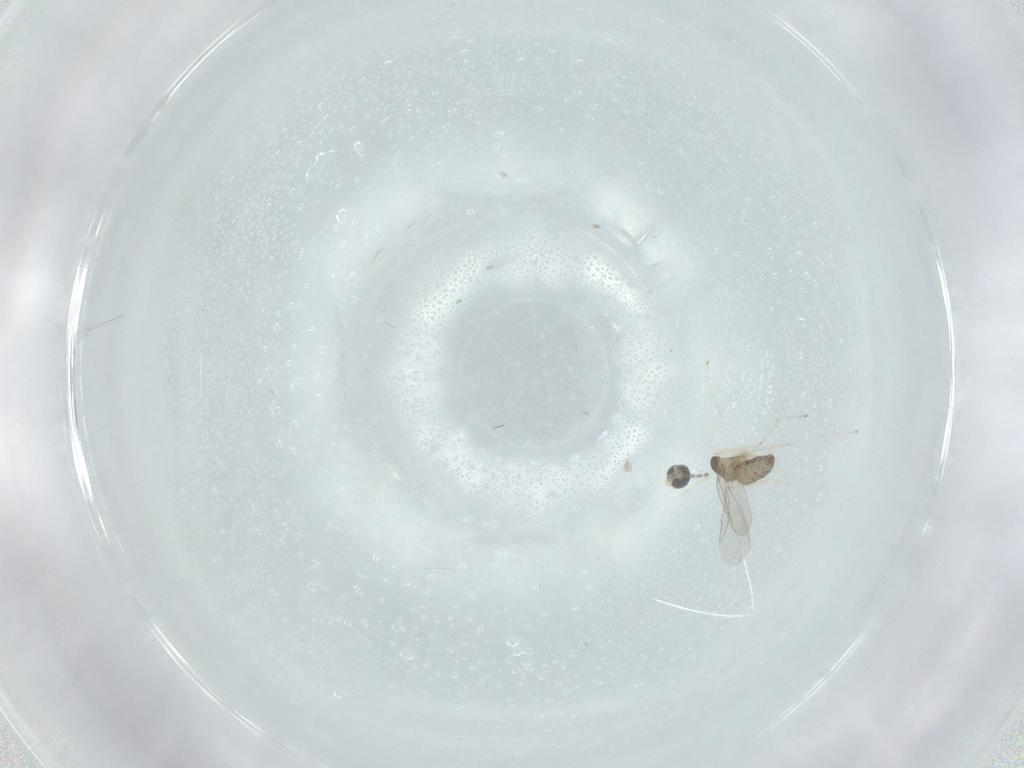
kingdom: Animalia
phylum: Arthropoda
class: Insecta
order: Diptera
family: Cecidomyiidae
